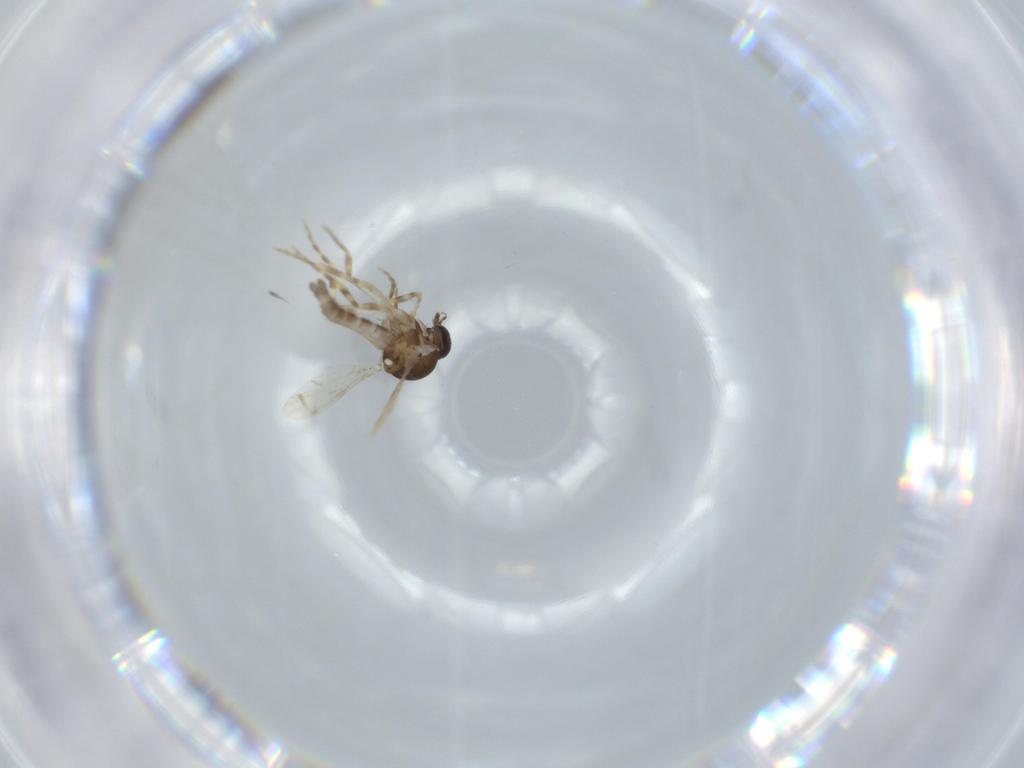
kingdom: Animalia
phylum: Arthropoda
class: Insecta
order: Diptera
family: Ceratopogonidae
